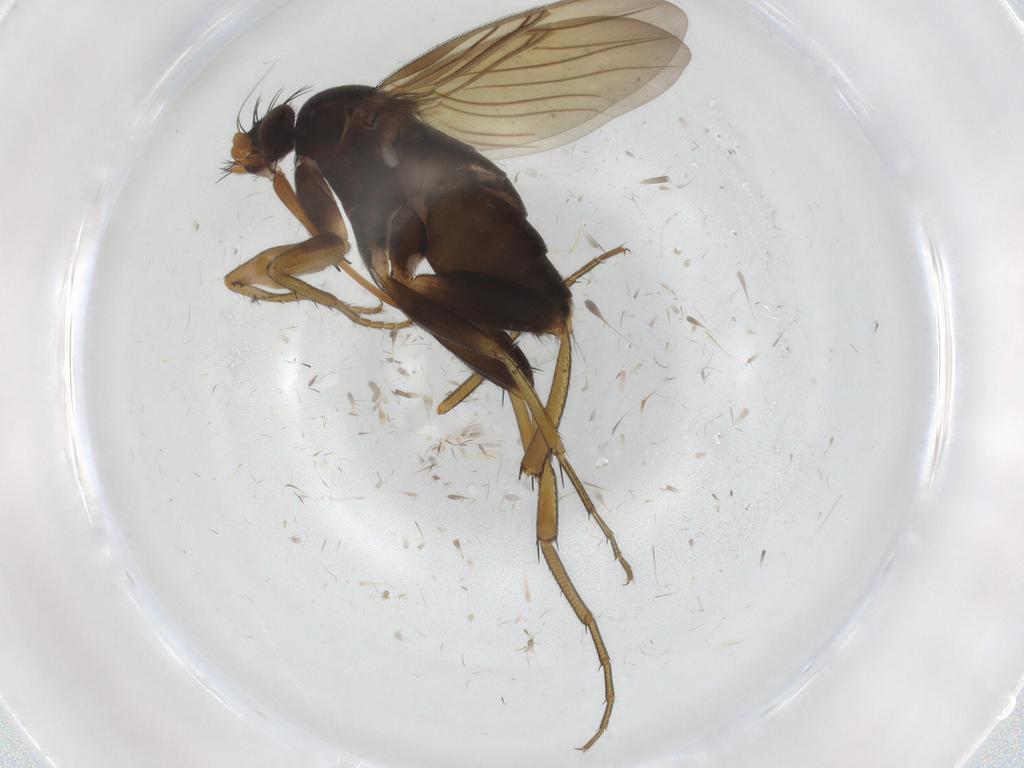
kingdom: Animalia
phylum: Arthropoda
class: Insecta
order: Diptera
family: Phoridae
